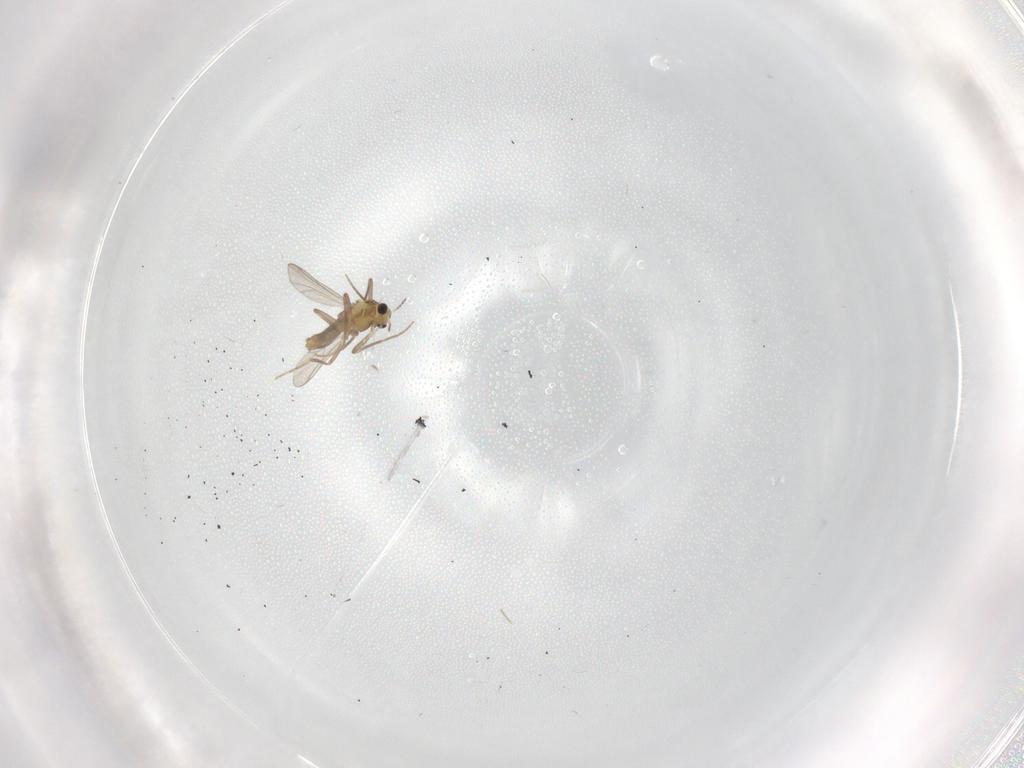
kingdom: Animalia
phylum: Arthropoda
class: Insecta
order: Diptera
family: Chironomidae
